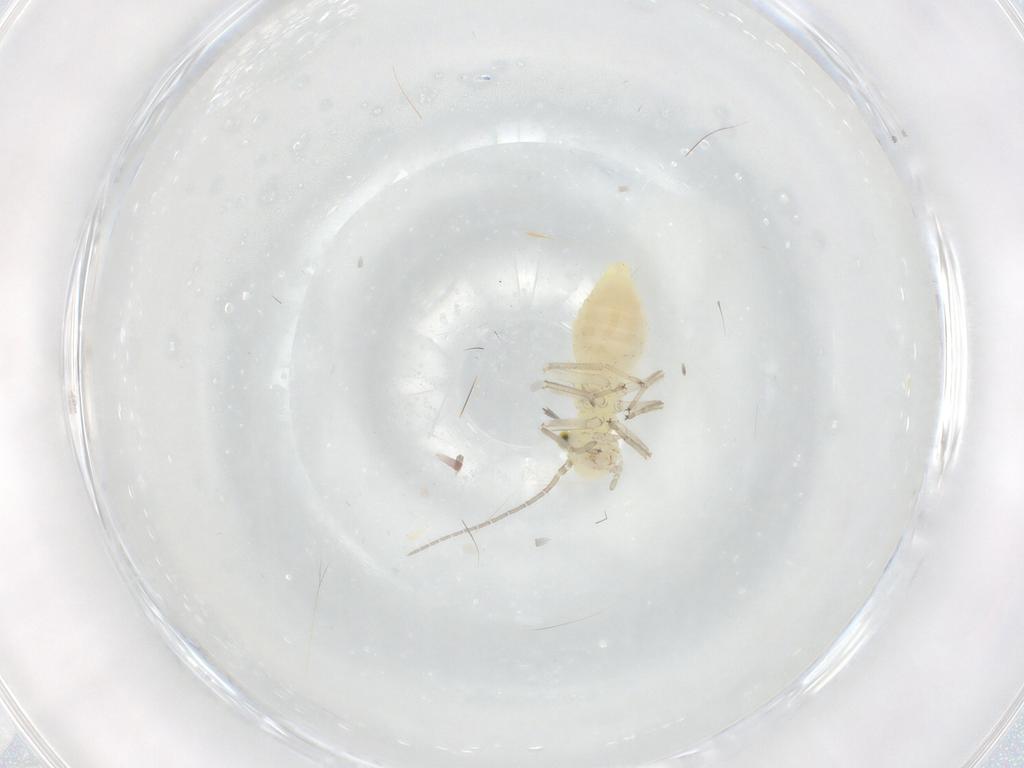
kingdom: Animalia
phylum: Arthropoda
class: Insecta
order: Psocodea
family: Caeciliusidae
